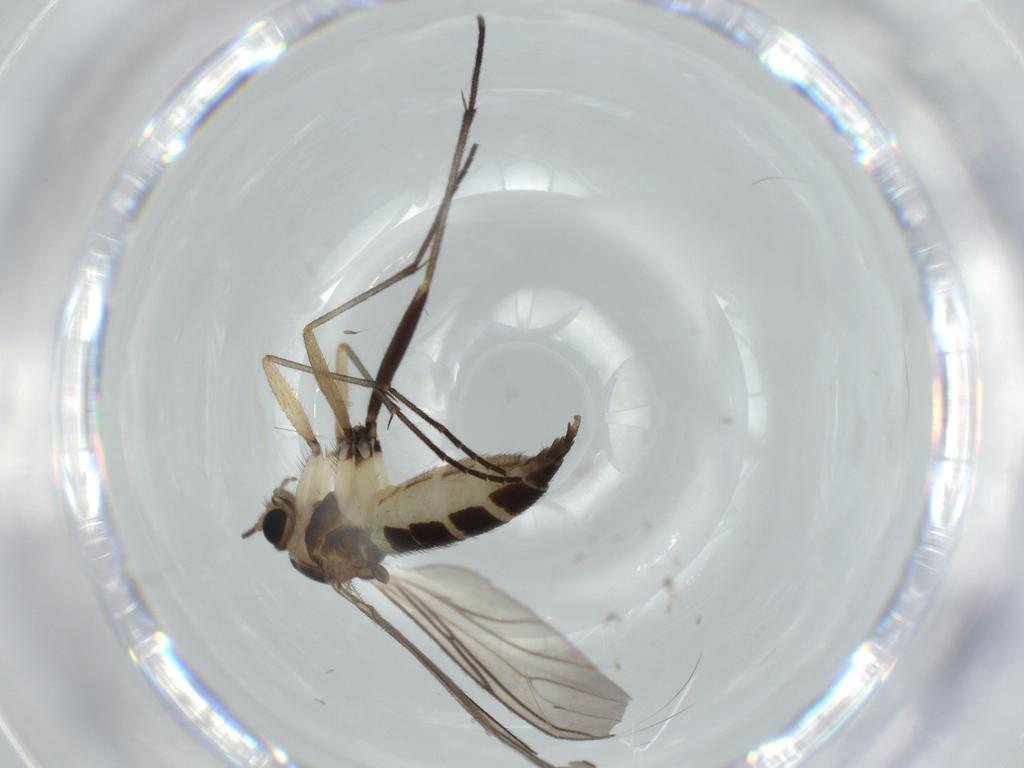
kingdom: Animalia
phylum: Arthropoda
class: Insecta
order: Diptera
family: Sciaridae
